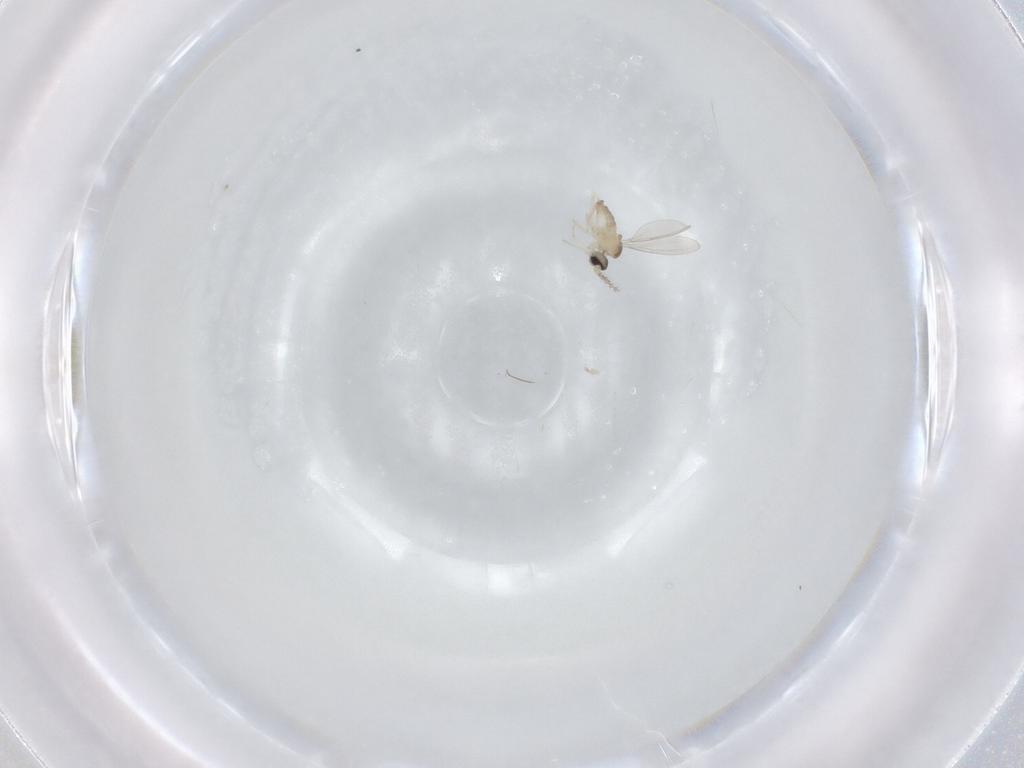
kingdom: Animalia
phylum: Arthropoda
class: Insecta
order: Diptera
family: Cecidomyiidae
